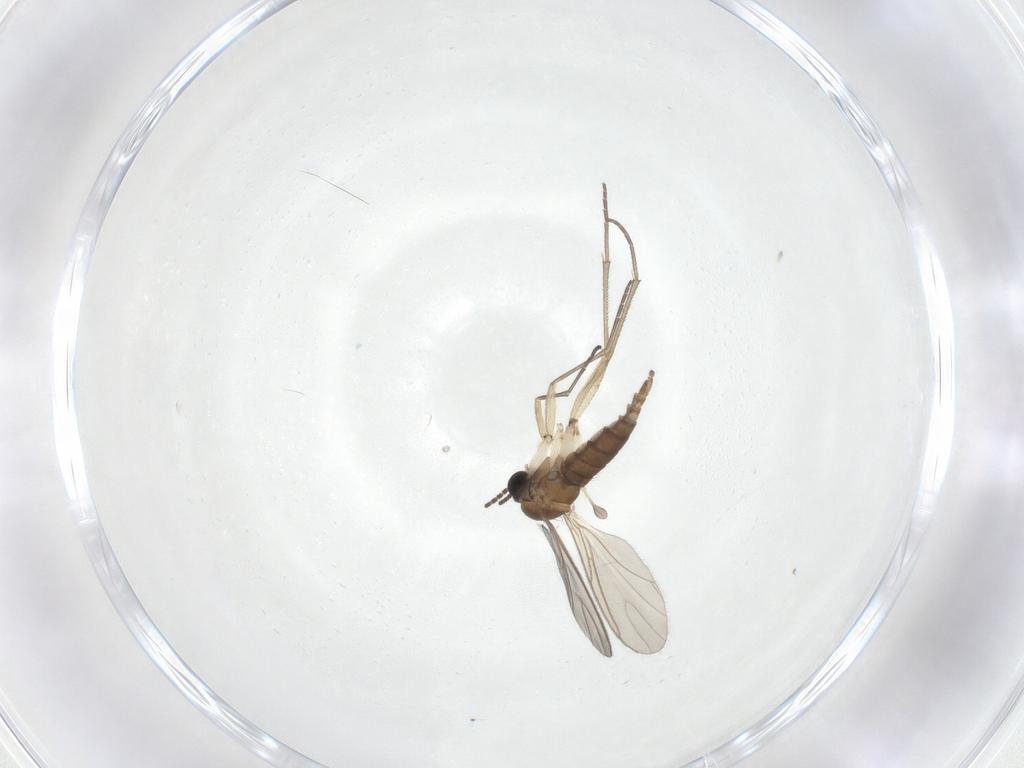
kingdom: Animalia
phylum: Arthropoda
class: Insecta
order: Diptera
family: Sciaridae
